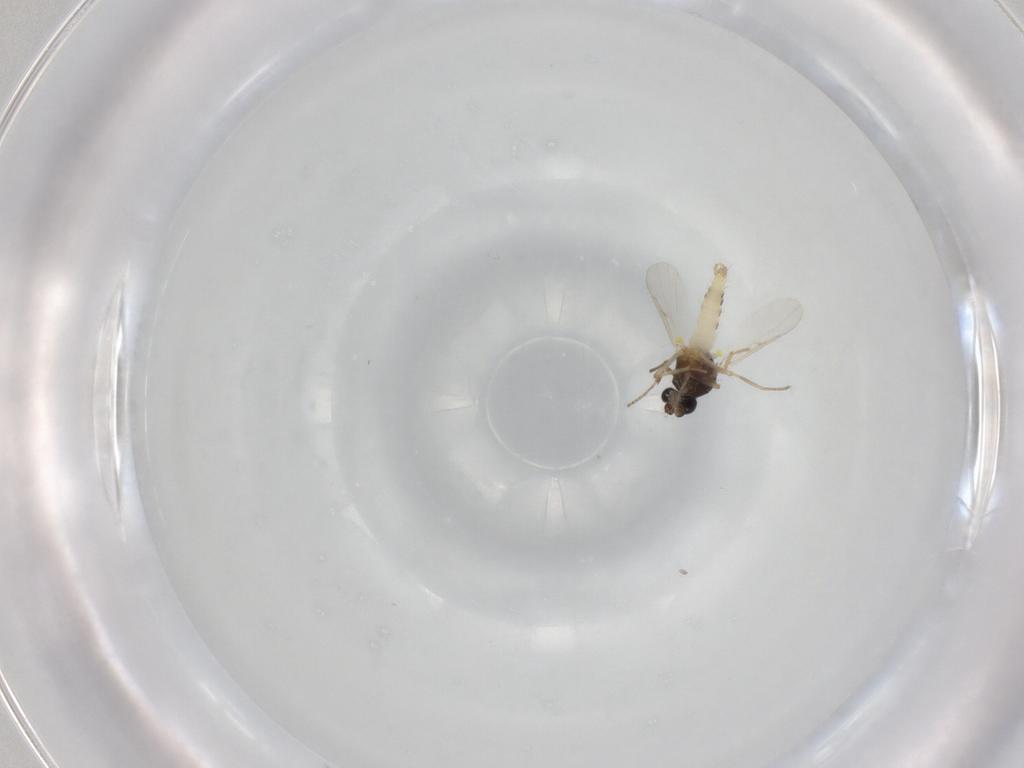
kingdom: Animalia
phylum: Arthropoda
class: Insecta
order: Diptera
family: Ceratopogonidae
